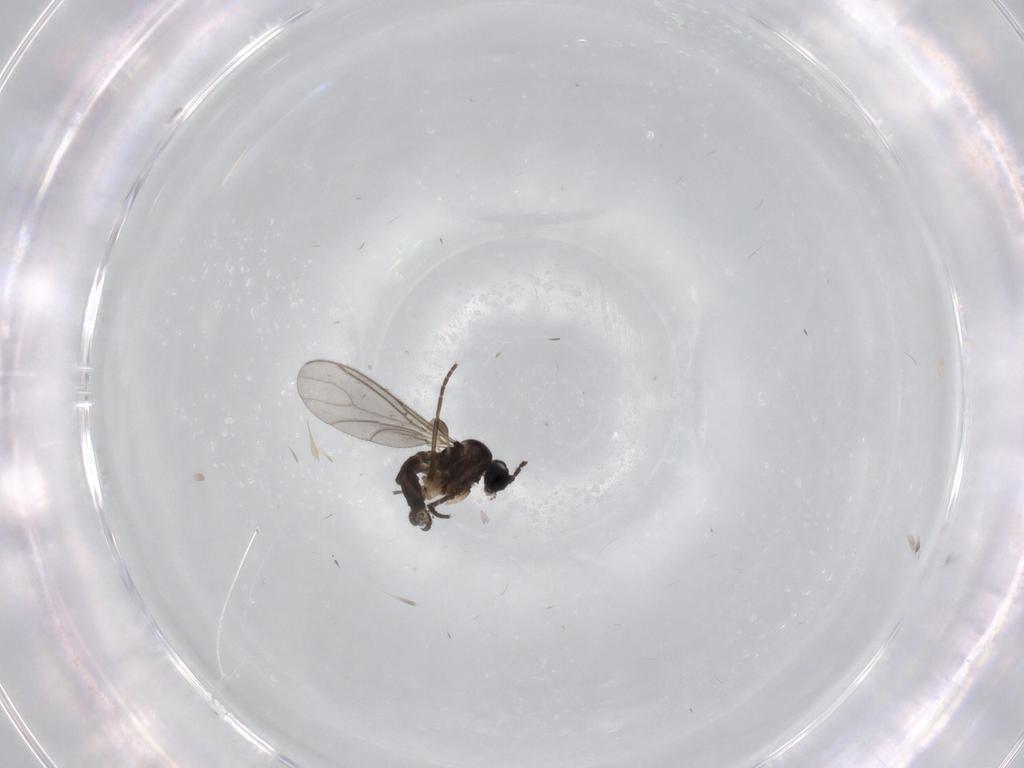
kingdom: Animalia
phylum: Arthropoda
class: Insecta
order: Diptera
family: Sciaridae
